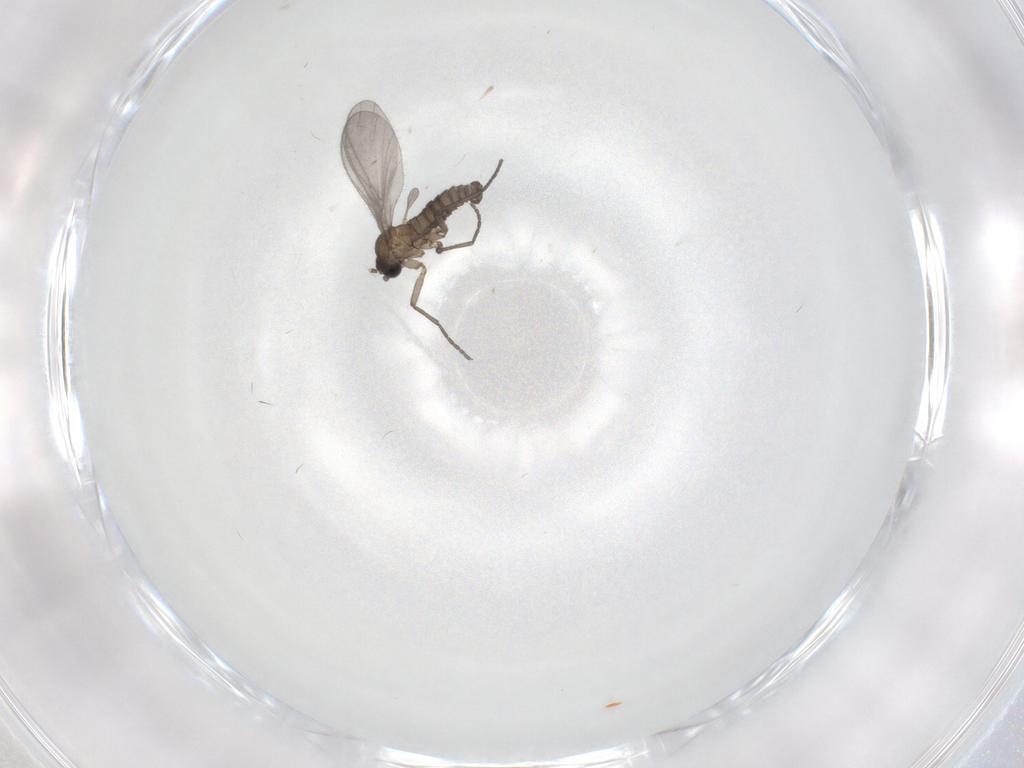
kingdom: Animalia
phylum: Arthropoda
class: Insecta
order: Diptera
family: Sciaridae
